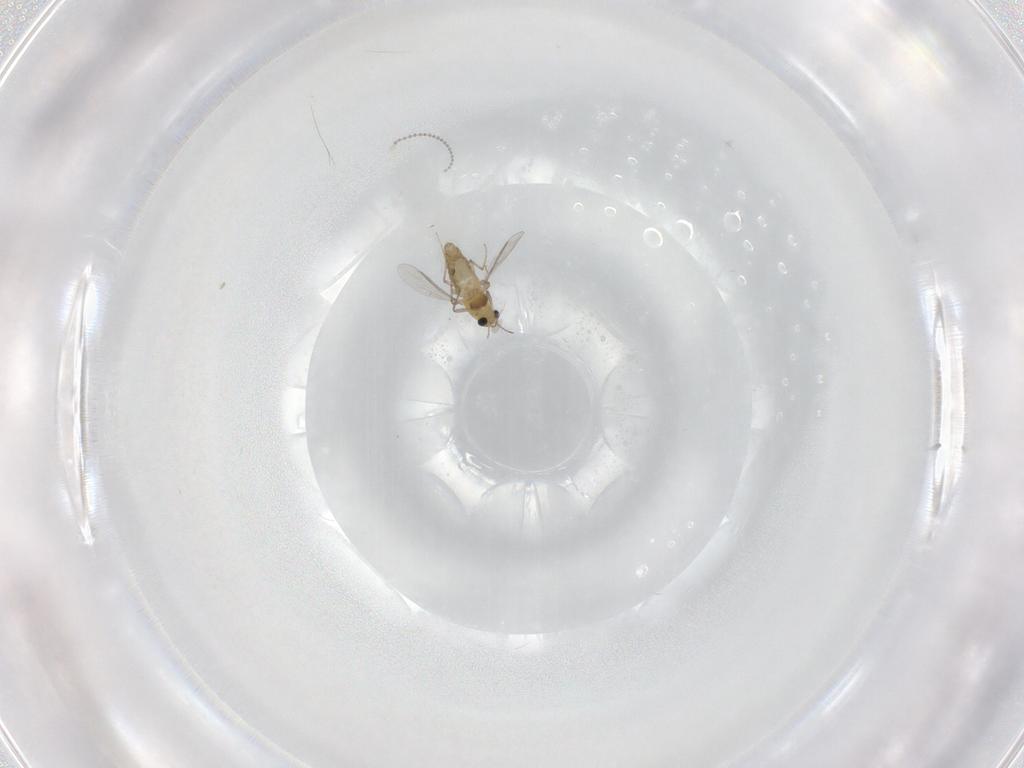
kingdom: Animalia
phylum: Arthropoda
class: Insecta
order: Diptera
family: Chironomidae
